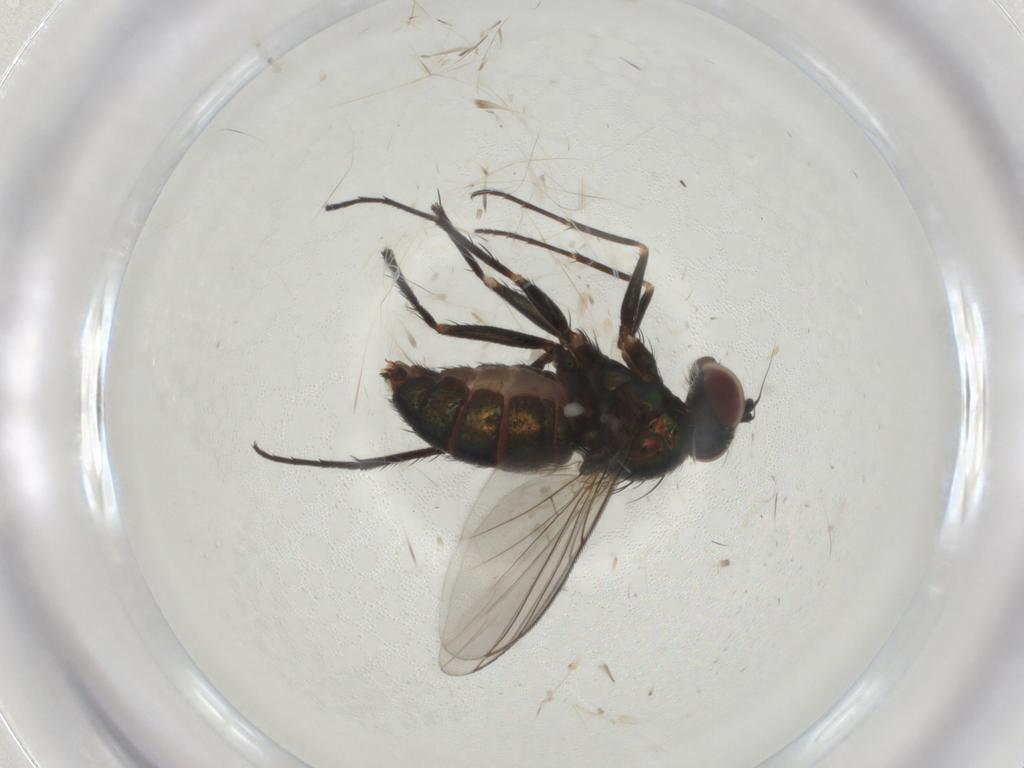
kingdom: Animalia
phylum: Arthropoda
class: Insecta
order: Diptera
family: Dolichopodidae
